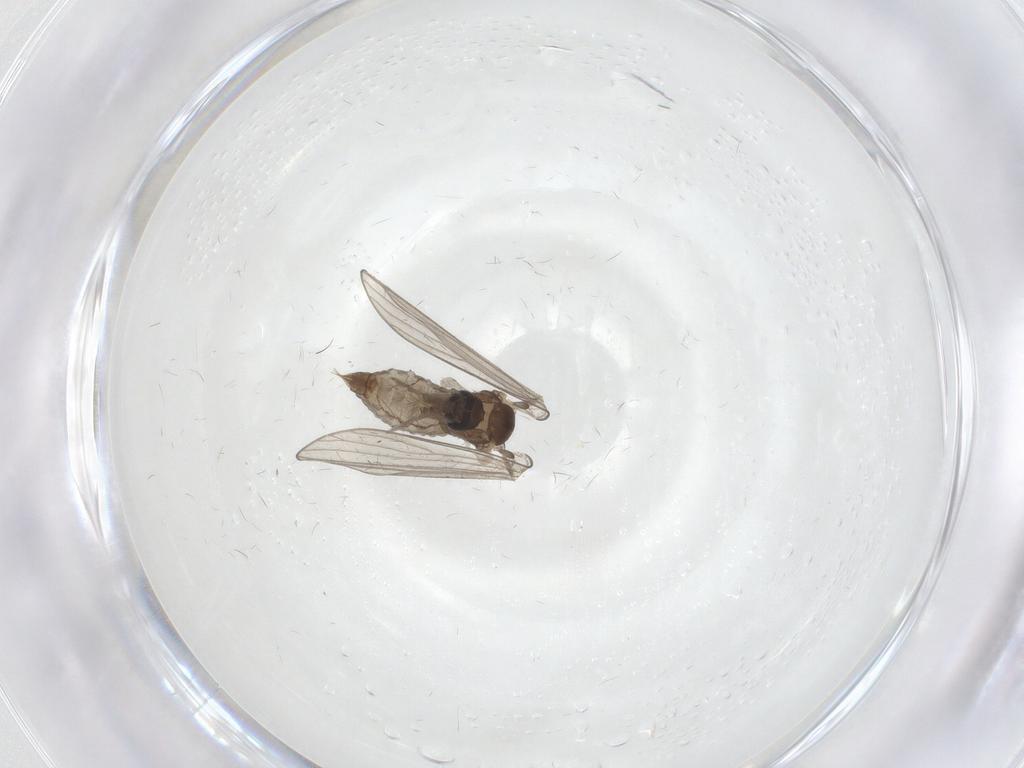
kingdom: Animalia
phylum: Arthropoda
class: Insecta
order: Diptera
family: Psychodidae
